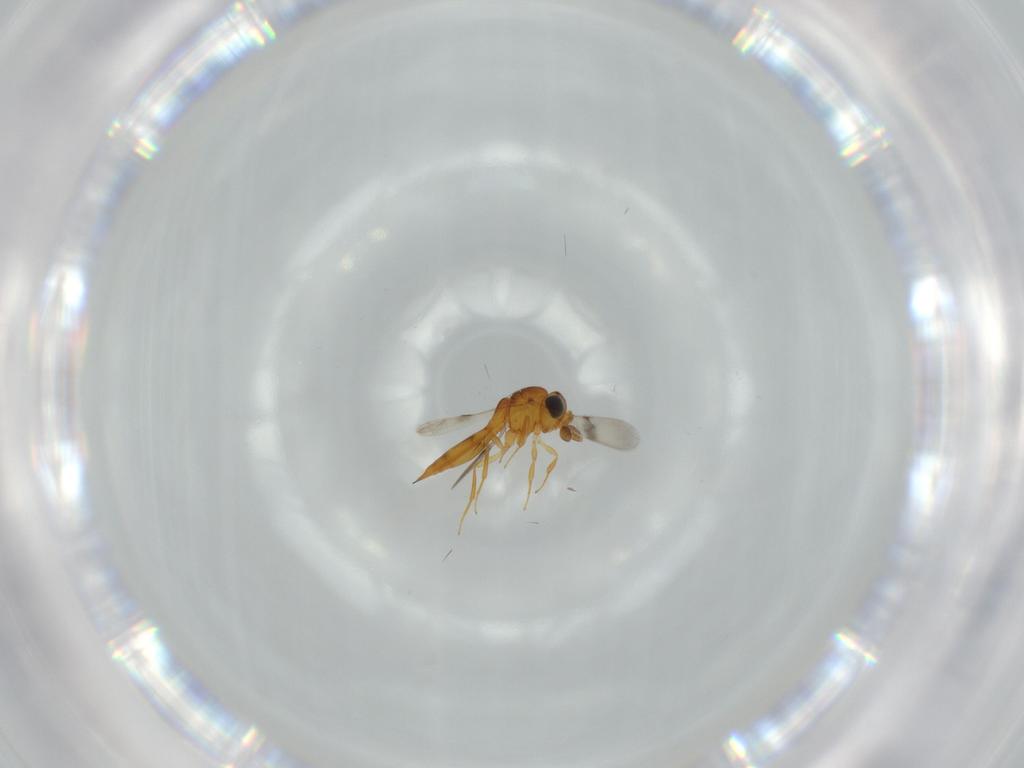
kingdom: Animalia
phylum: Arthropoda
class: Insecta
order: Hymenoptera
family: Scelionidae
